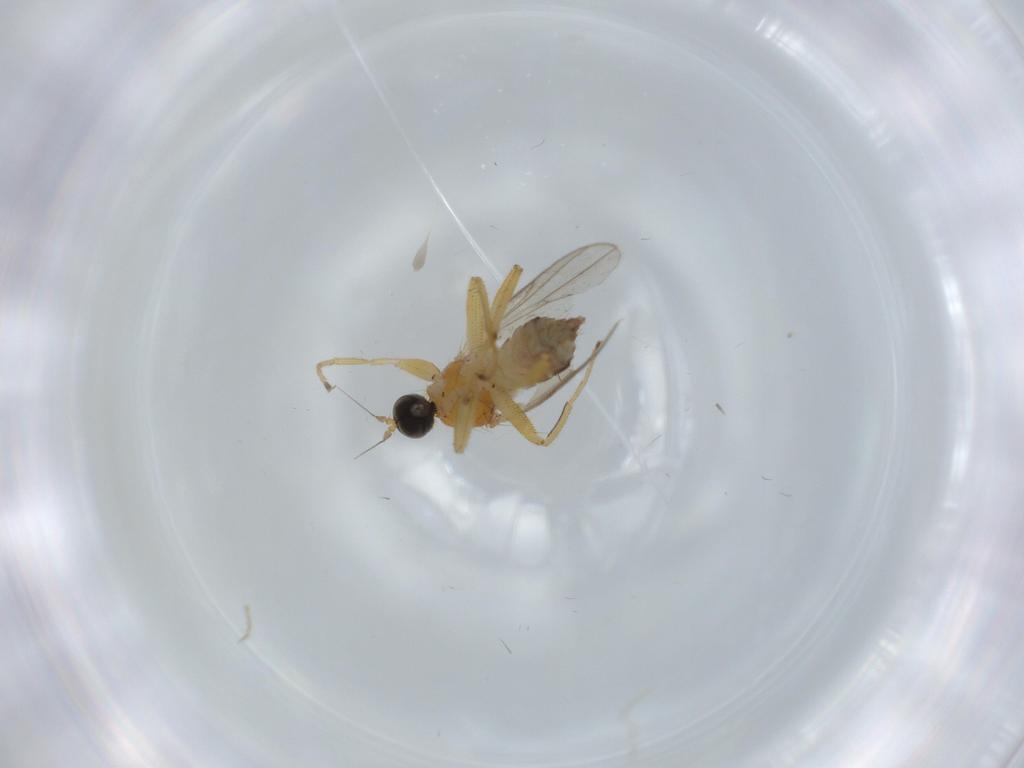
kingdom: Animalia
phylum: Arthropoda
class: Insecta
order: Diptera
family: Hybotidae
